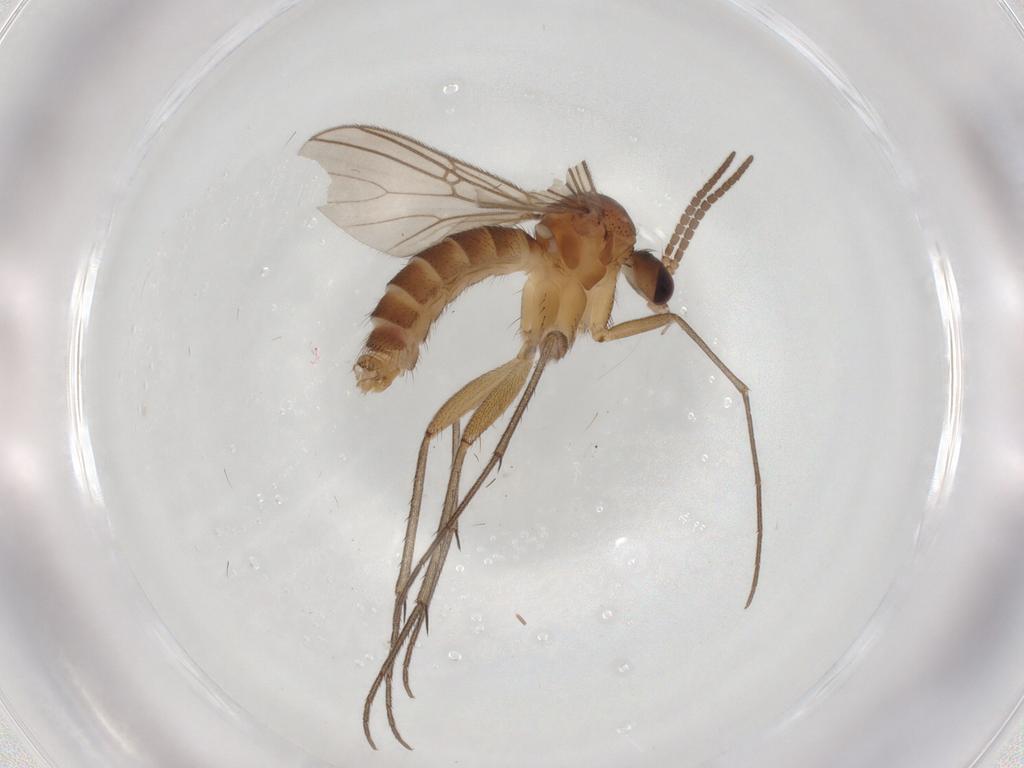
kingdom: Animalia
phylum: Arthropoda
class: Insecta
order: Diptera
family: Mycetophilidae
